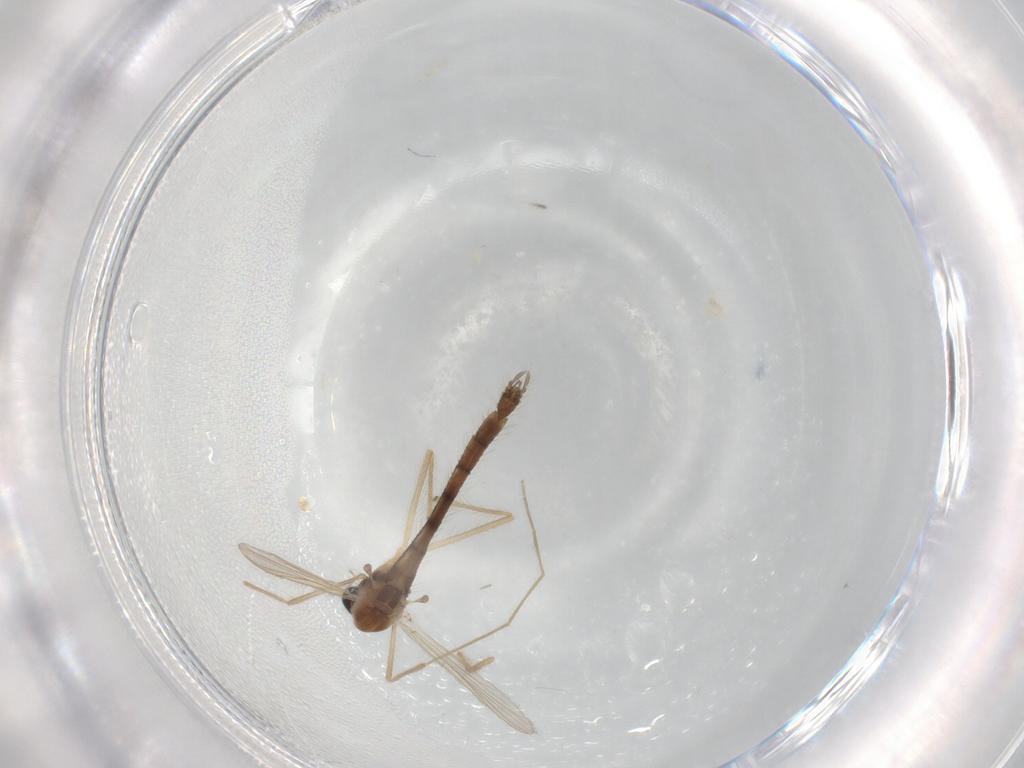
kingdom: Animalia
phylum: Arthropoda
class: Insecta
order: Diptera
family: Chironomidae
